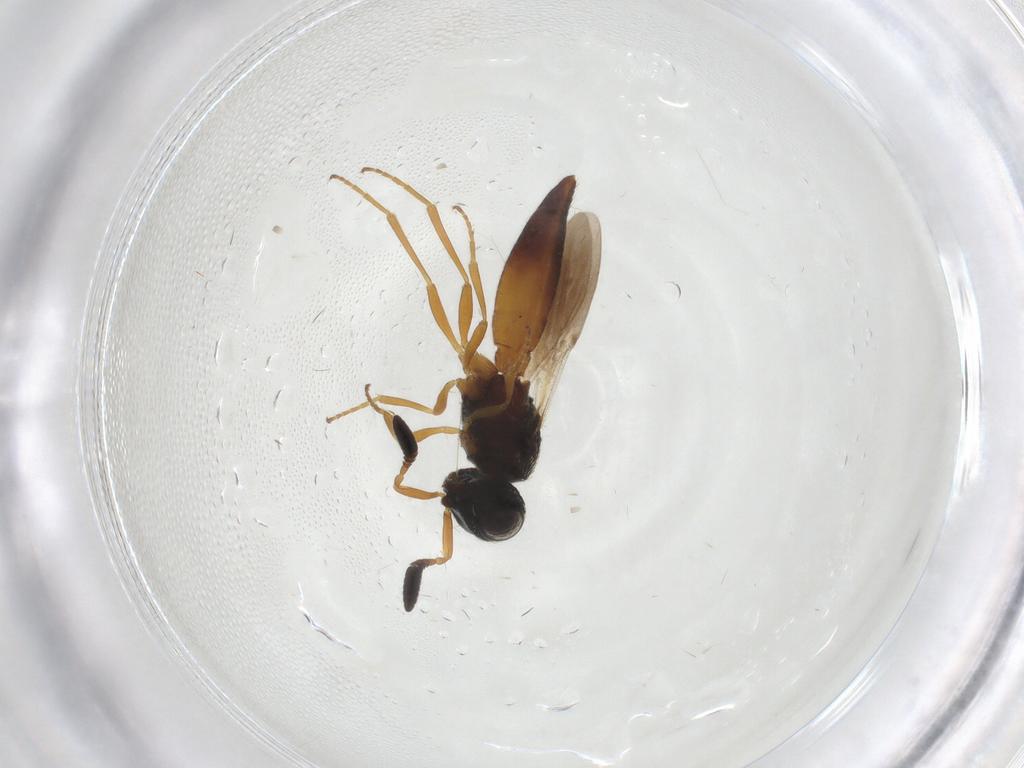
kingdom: Animalia
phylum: Arthropoda
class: Insecta
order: Hymenoptera
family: Scelionidae
